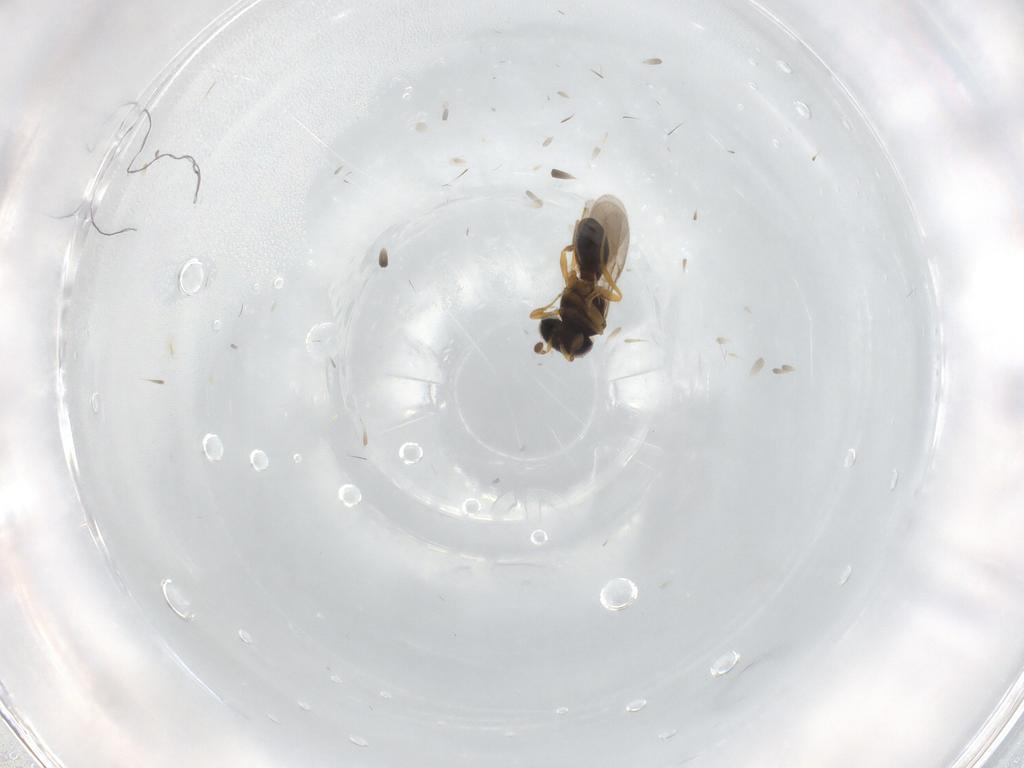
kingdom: Animalia
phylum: Arthropoda
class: Insecta
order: Hymenoptera
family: Scelionidae
